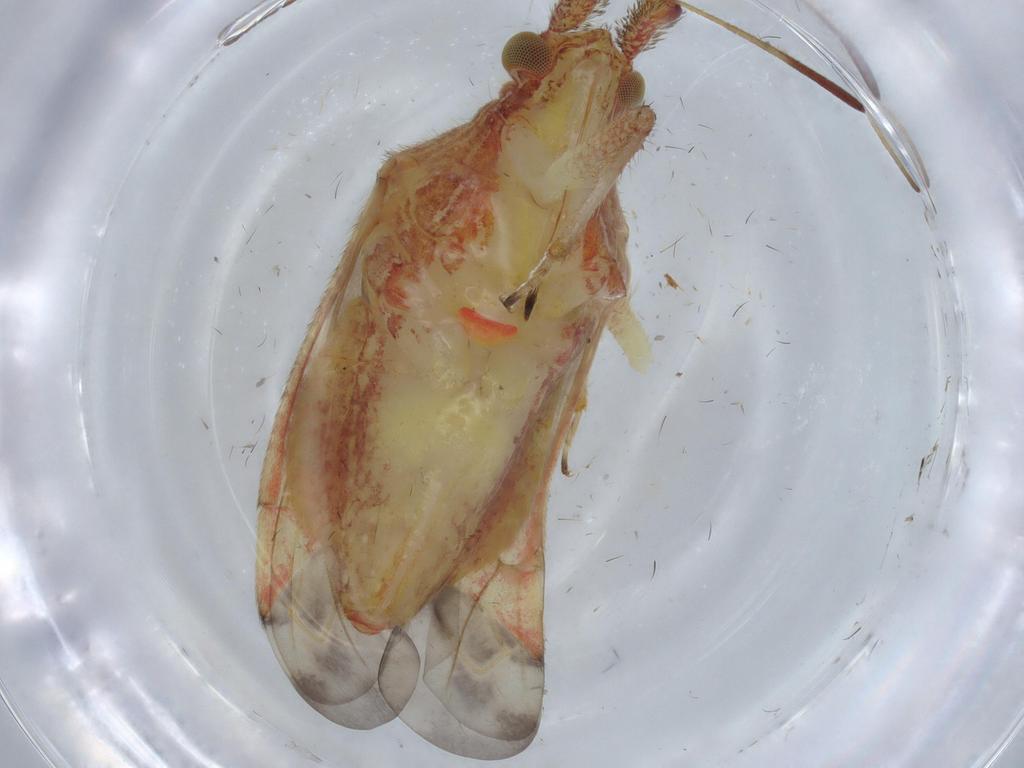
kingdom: Animalia
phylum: Arthropoda
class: Insecta
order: Hemiptera
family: Miridae
